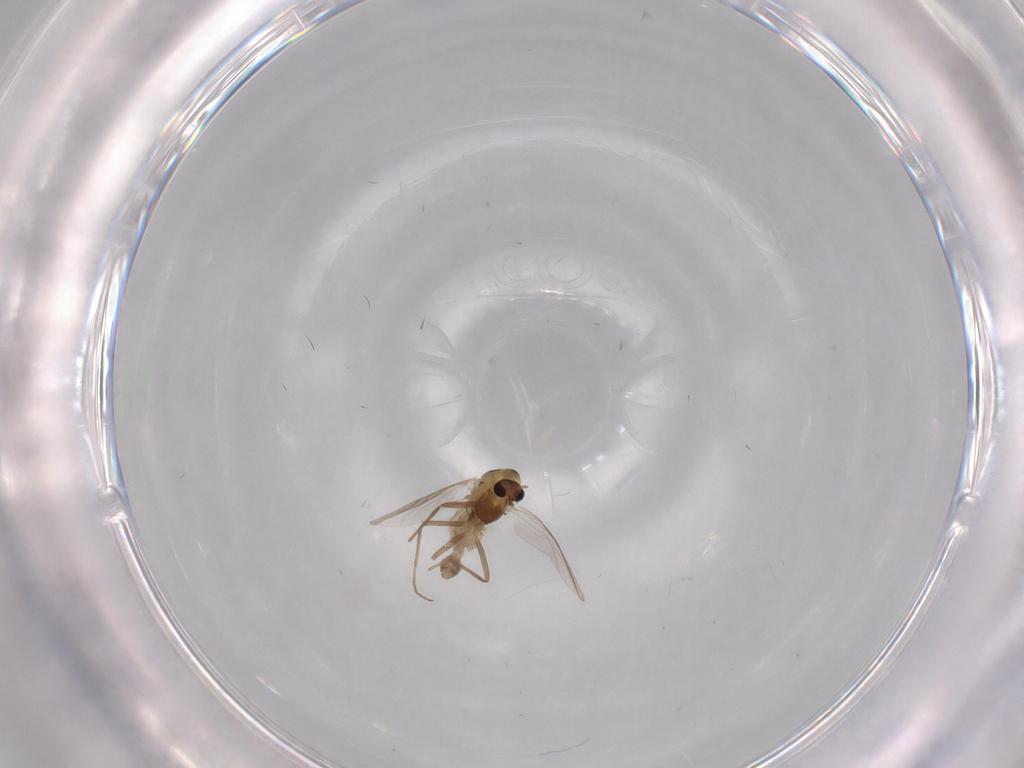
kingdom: Animalia
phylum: Arthropoda
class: Insecta
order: Diptera
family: Chironomidae
